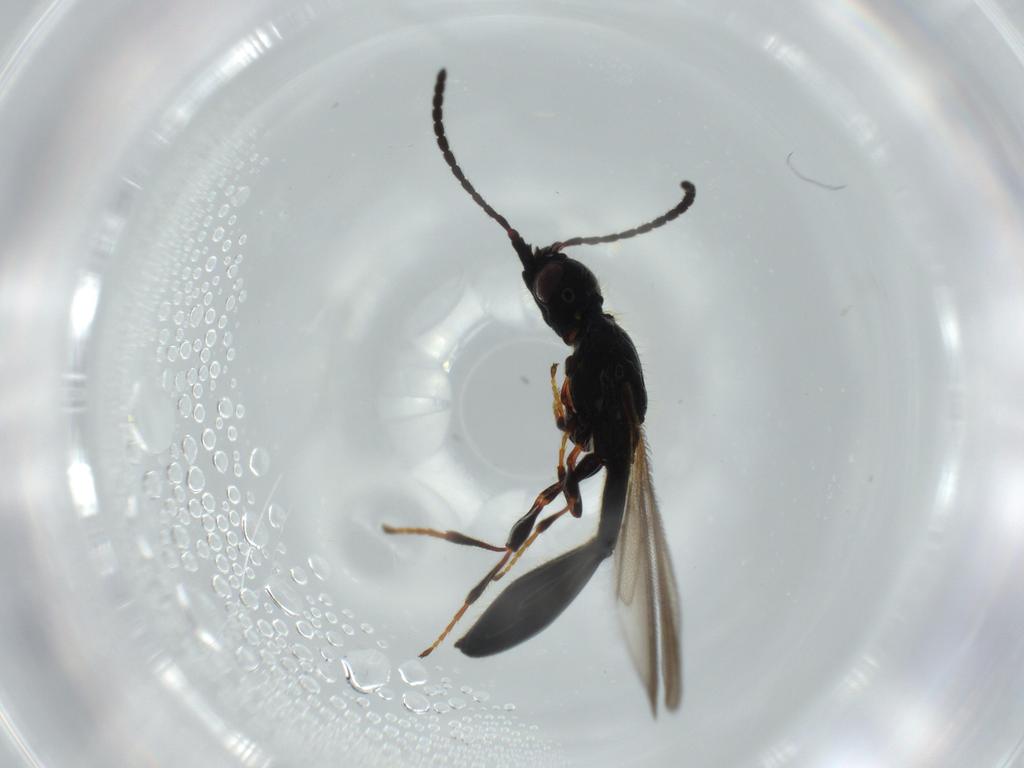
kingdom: Animalia
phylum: Arthropoda
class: Insecta
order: Hymenoptera
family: Diapriidae
